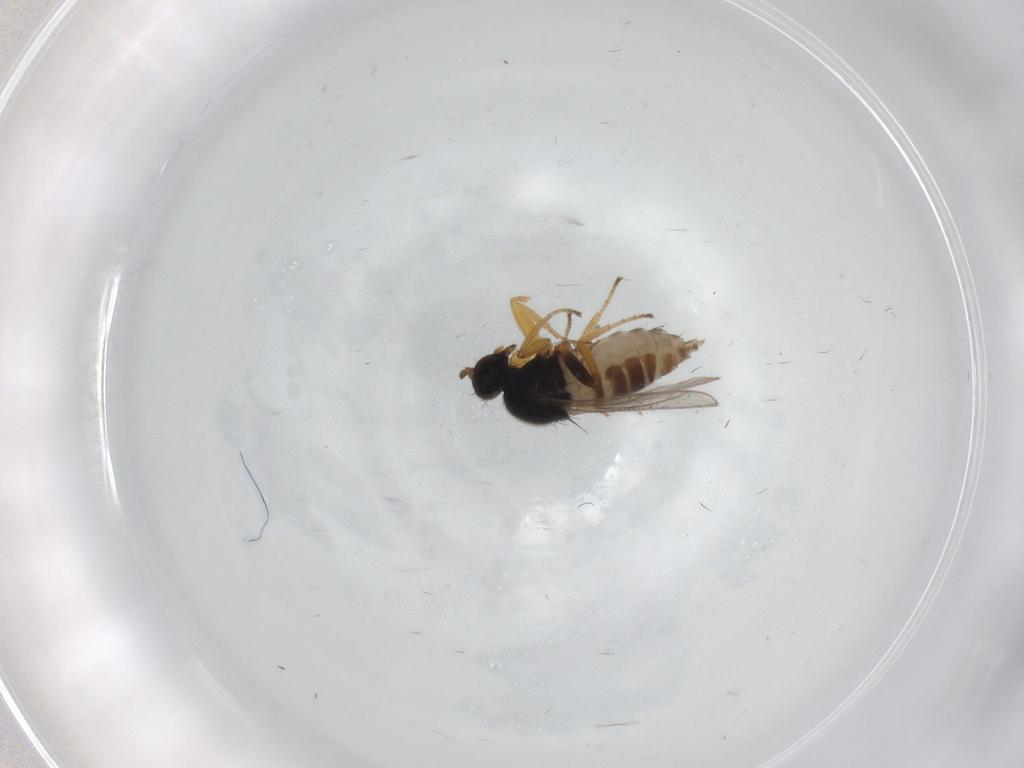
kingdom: Animalia
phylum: Arthropoda
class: Insecta
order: Diptera
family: Hybotidae
